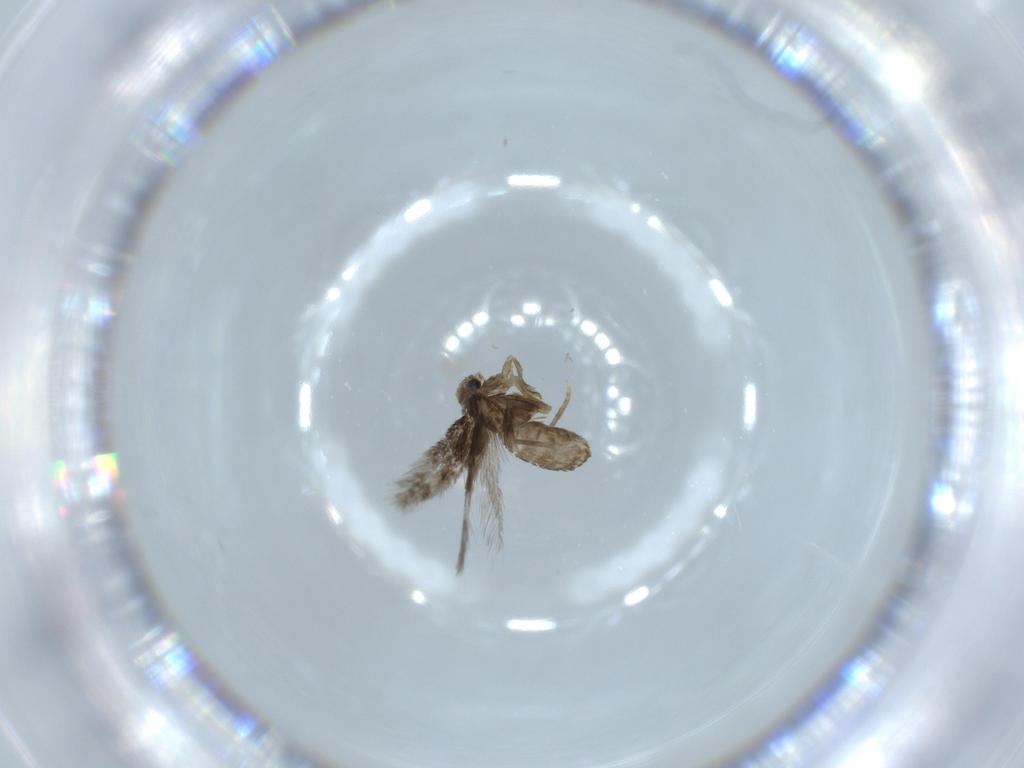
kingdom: Animalia
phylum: Arthropoda
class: Insecta
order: Lepidoptera
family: Nepticulidae
